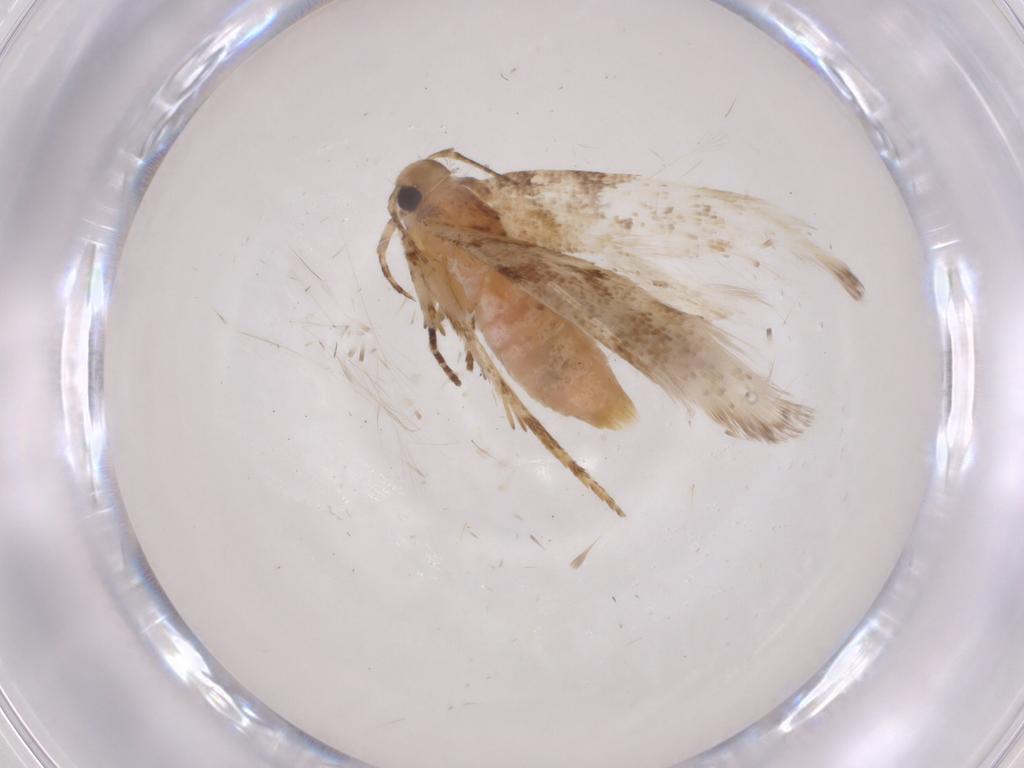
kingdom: Animalia
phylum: Arthropoda
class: Insecta
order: Lepidoptera
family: Gelechiidae
